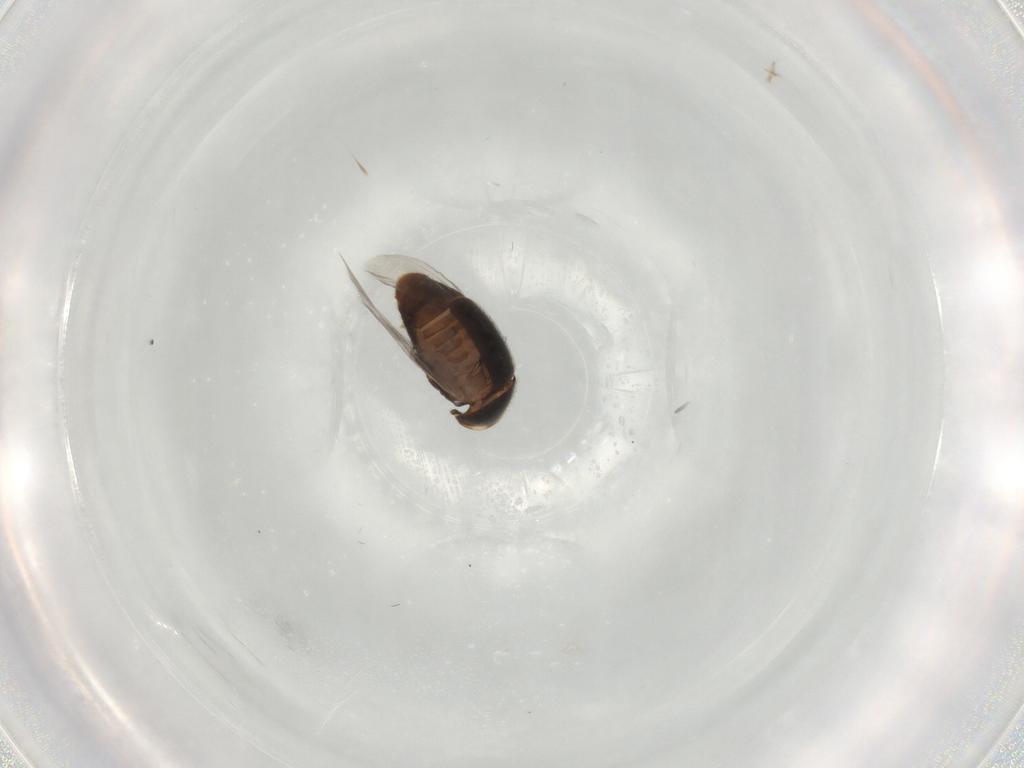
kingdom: Animalia
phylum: Arthropoda
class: Insecta
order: Coleoptera
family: Corylophidae
